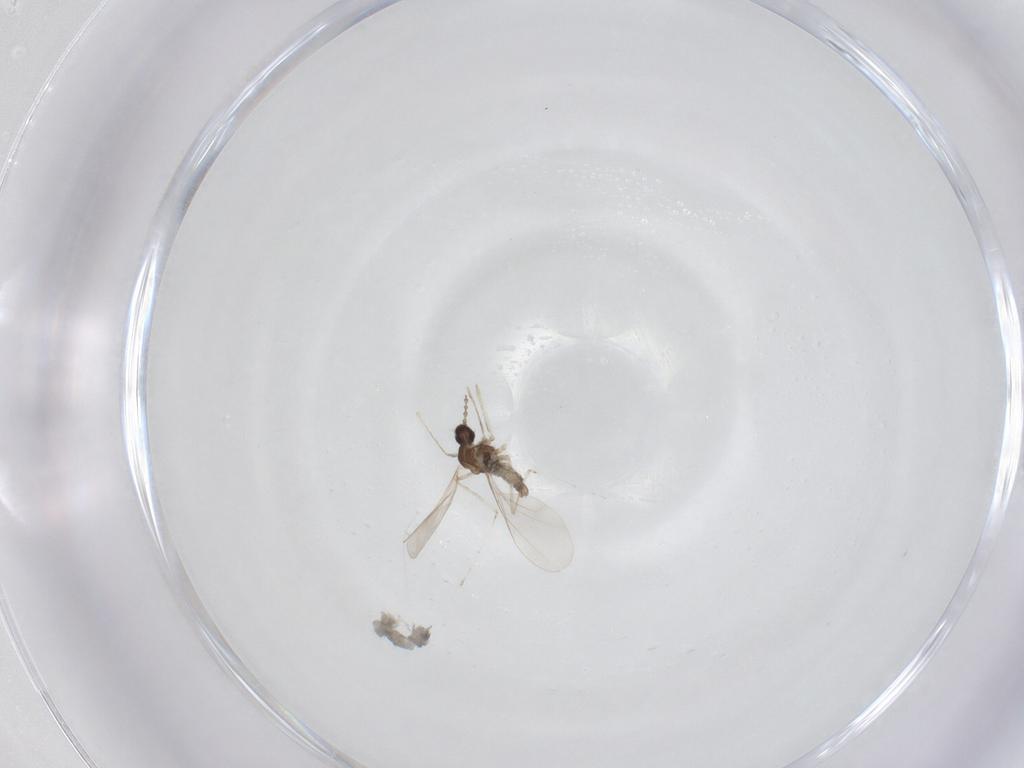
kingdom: Animalia
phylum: Arthropoda
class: Insecta
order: Diptera
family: Cecidomyiidae
